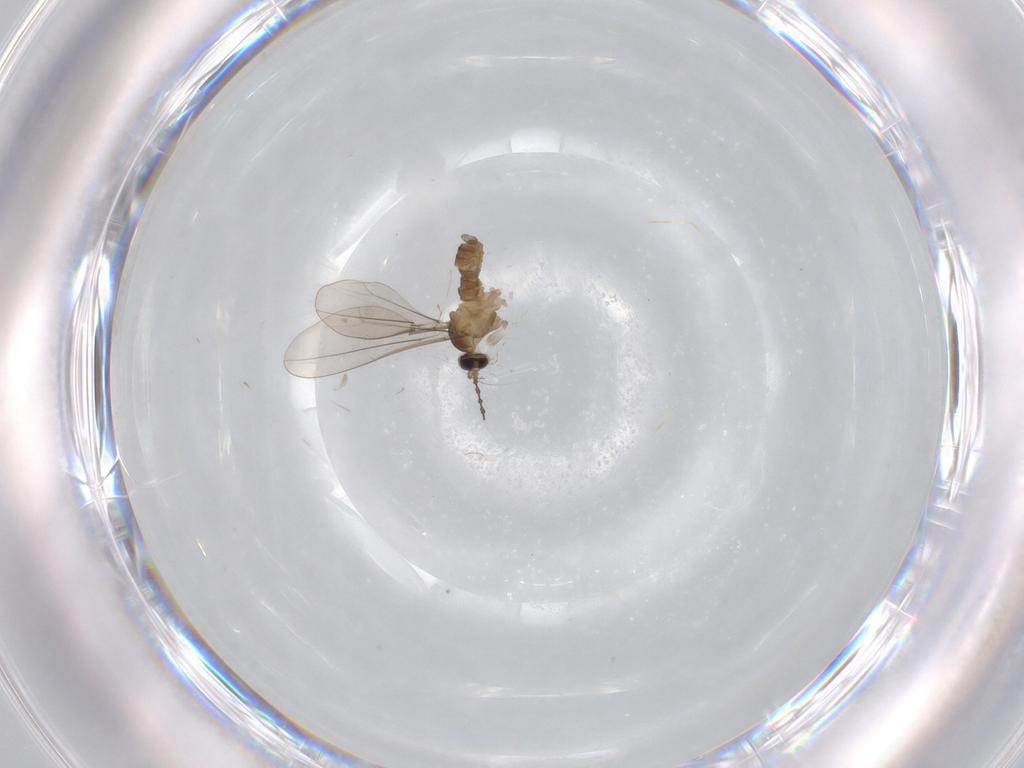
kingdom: Animalia
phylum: Arthropoda
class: Insecta
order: Diptera
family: Cecidomyiidae
